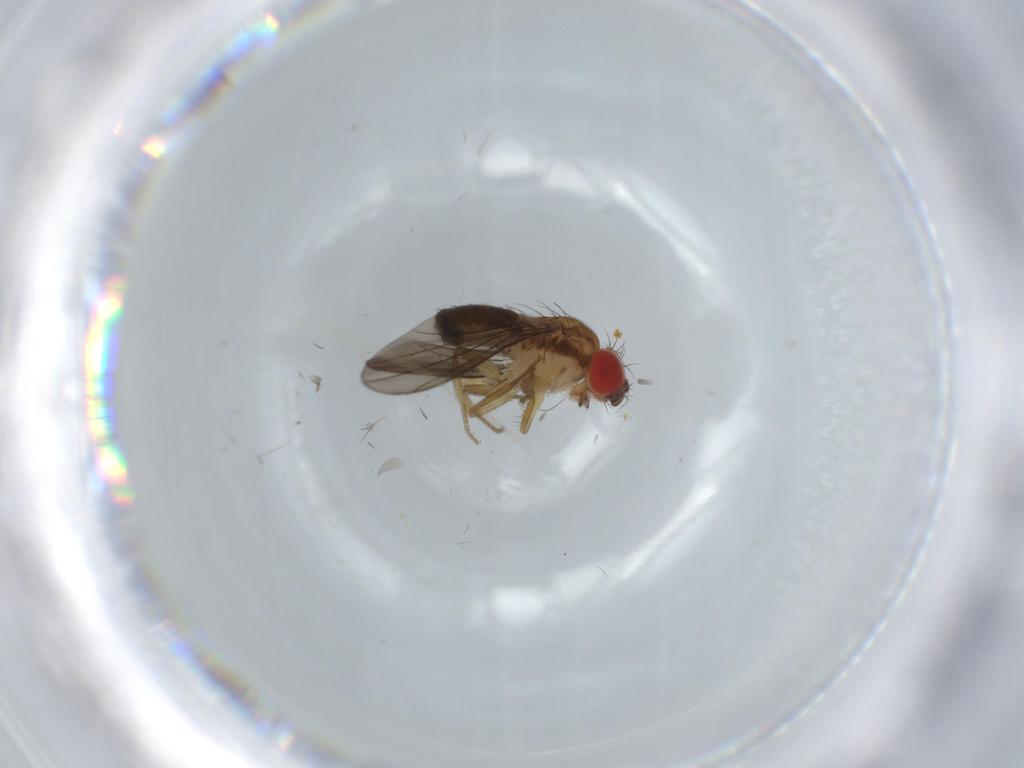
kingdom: Animalia
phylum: Arthropoda
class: Insecta
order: Diptera
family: Drosophilidae
